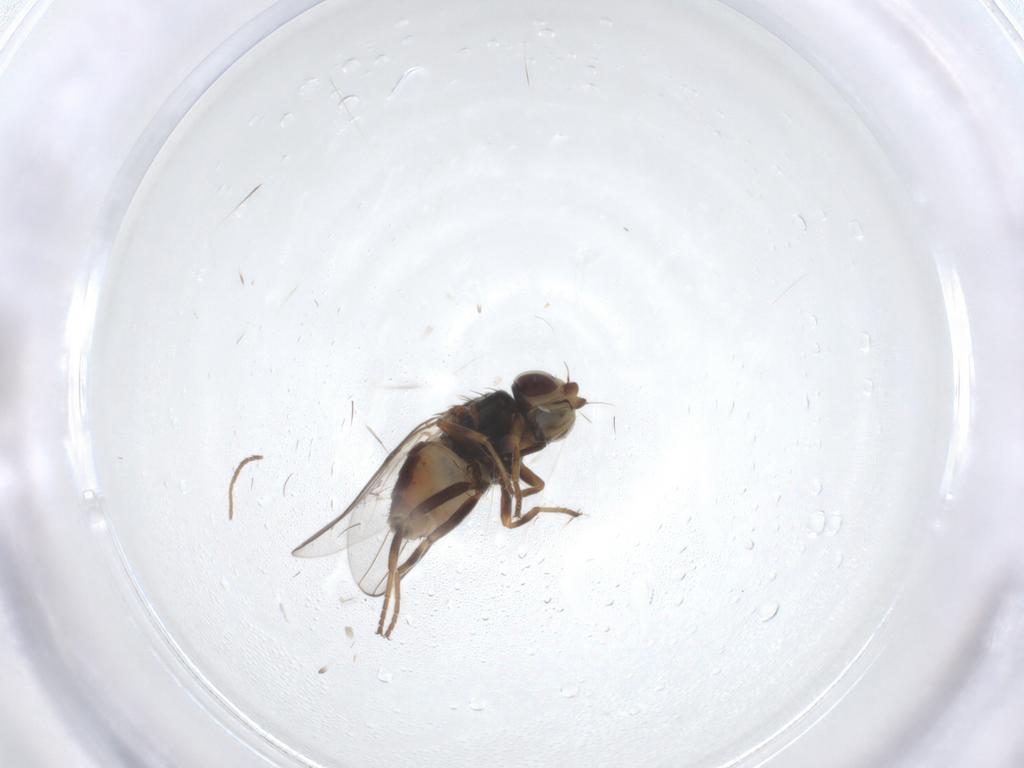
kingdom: Animalia
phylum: Arthropoda
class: Insecta
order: Diptera
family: Chloropidae
